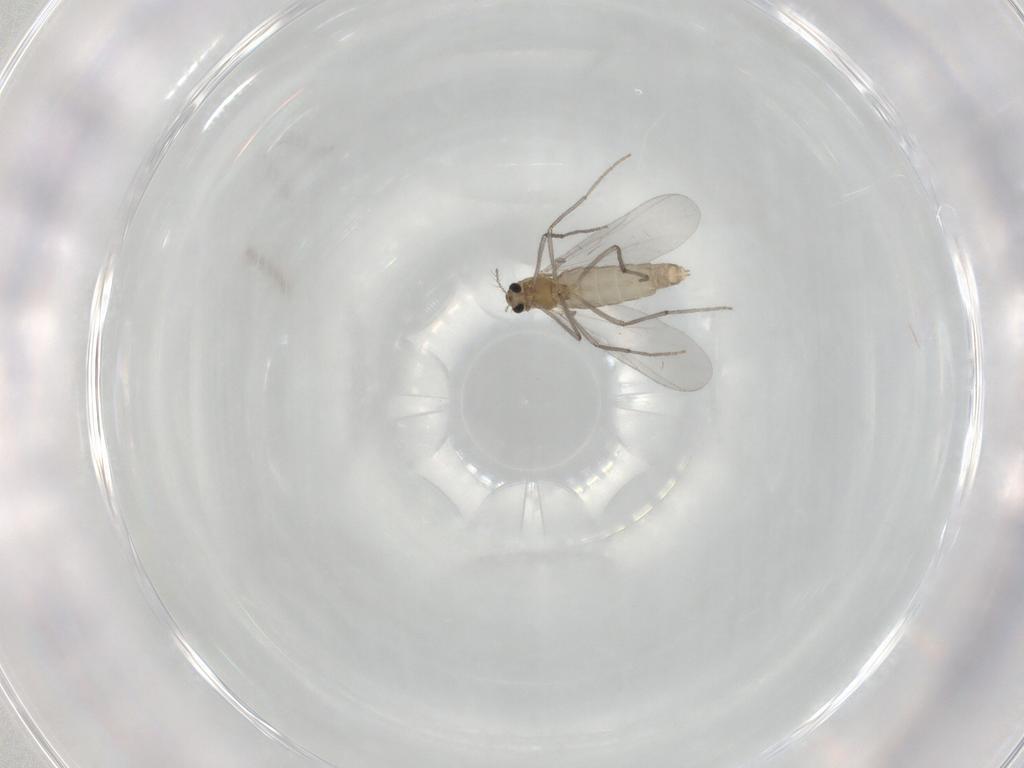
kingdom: Animalia
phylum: Arthropoda
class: Insecta
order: Diptera
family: Chironomidae
